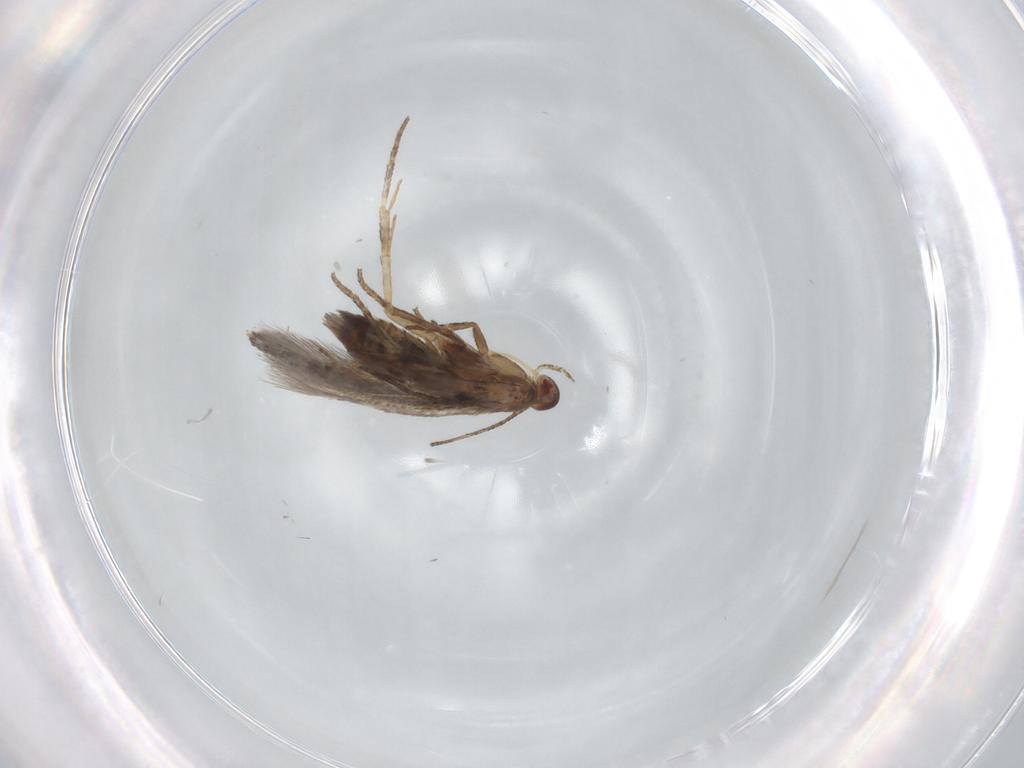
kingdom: Animalia
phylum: Arthropoda
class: Insecta
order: Lepidoptera
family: Momphidae
